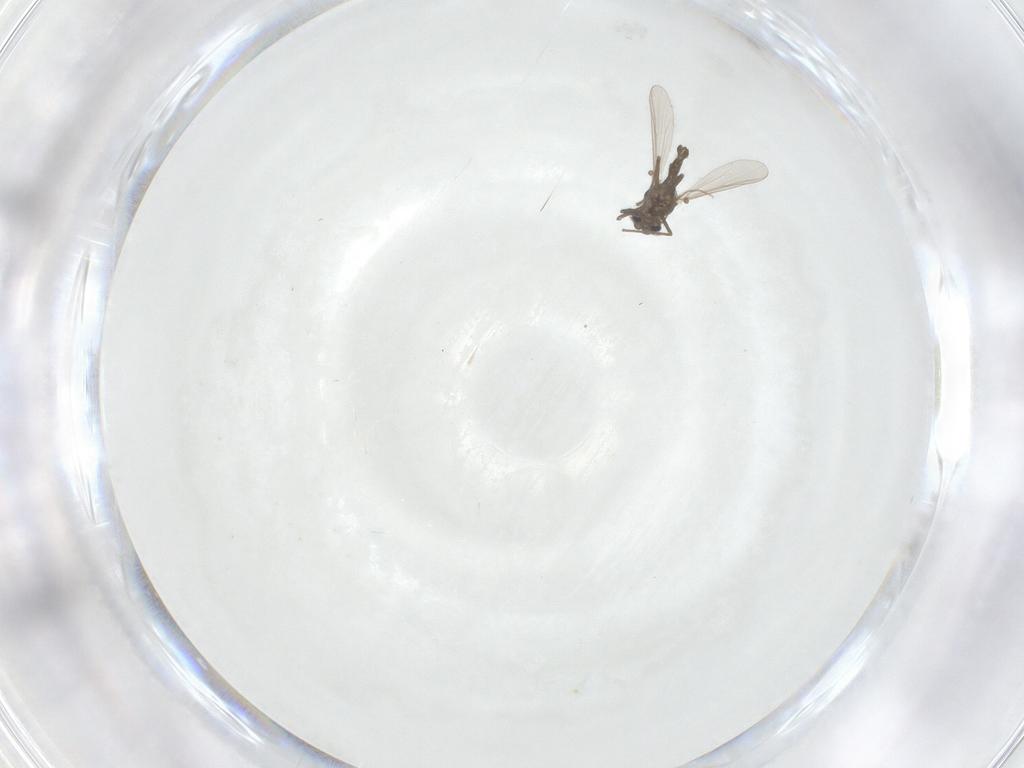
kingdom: Animalia
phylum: Arthropoda
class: Insecta
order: Diptera
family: Chironomidae
